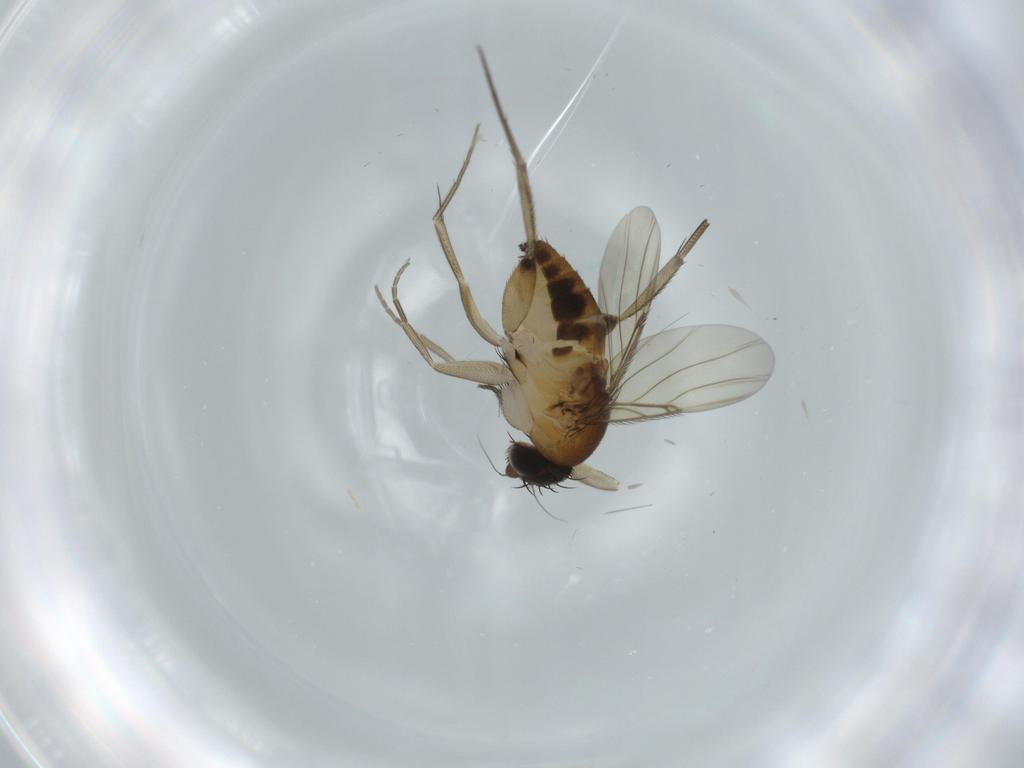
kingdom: Animalia
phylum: Arthropoda
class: Insecta
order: Diptera
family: Phoridae
